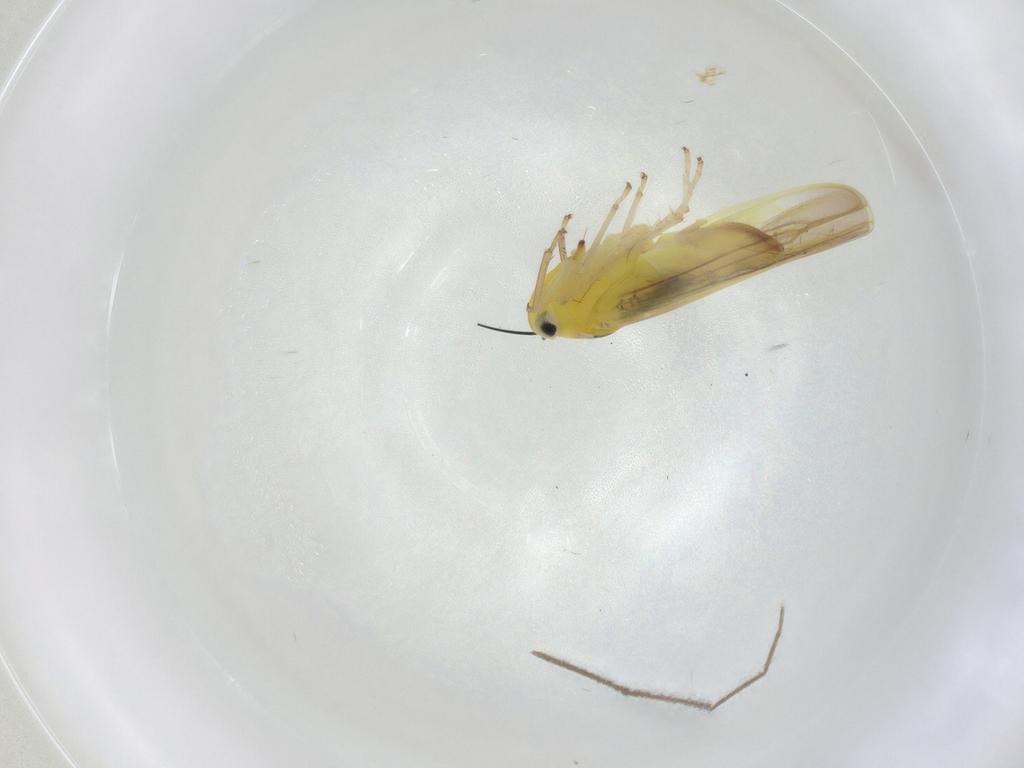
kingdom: Animalia
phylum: Arthropoda
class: Insecta
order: Hemiptera
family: Cicadellidae
